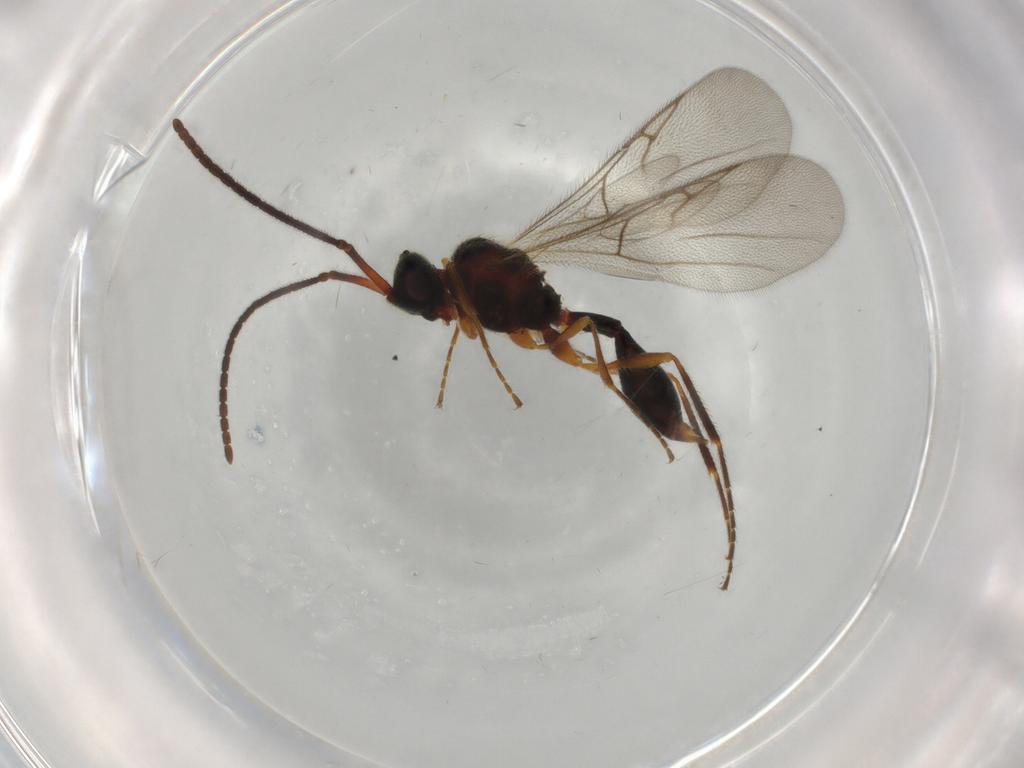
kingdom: Animalia
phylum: Arthropoda
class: Insecta
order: Hymenoptera
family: Diapriidae
